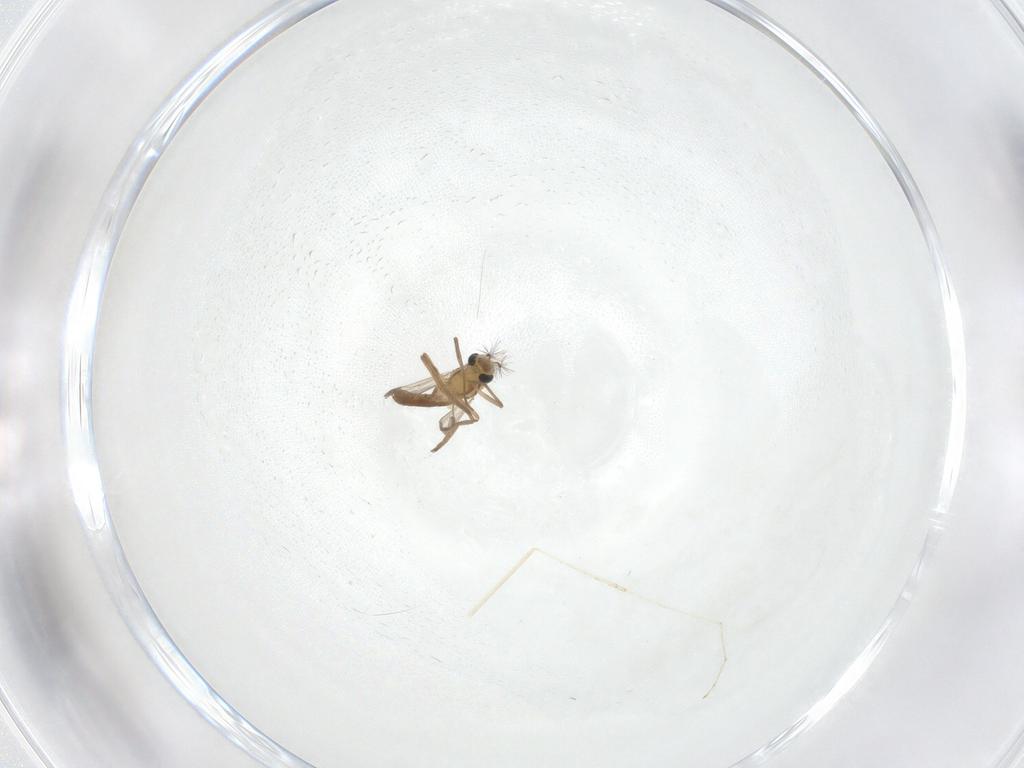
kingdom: Animalia
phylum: Arthropoda
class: Insecta
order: Diptera
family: Chironomidae
